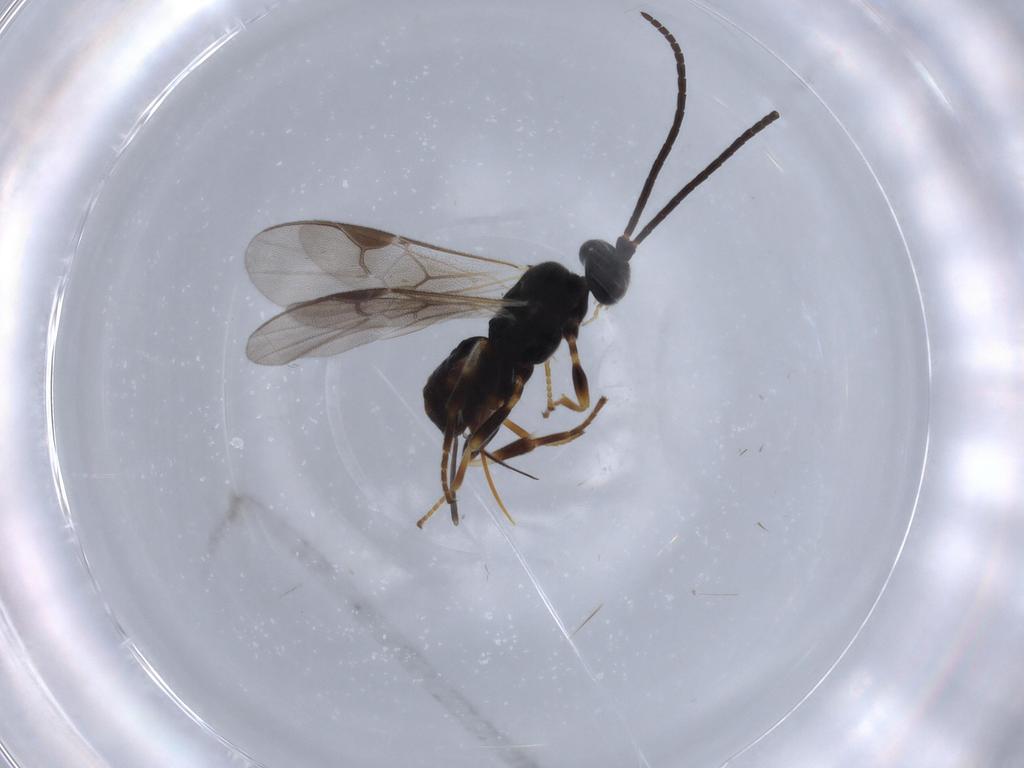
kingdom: Animalia
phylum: Arthropoda
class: Insecta
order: Hymenoptera
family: Braconidae
